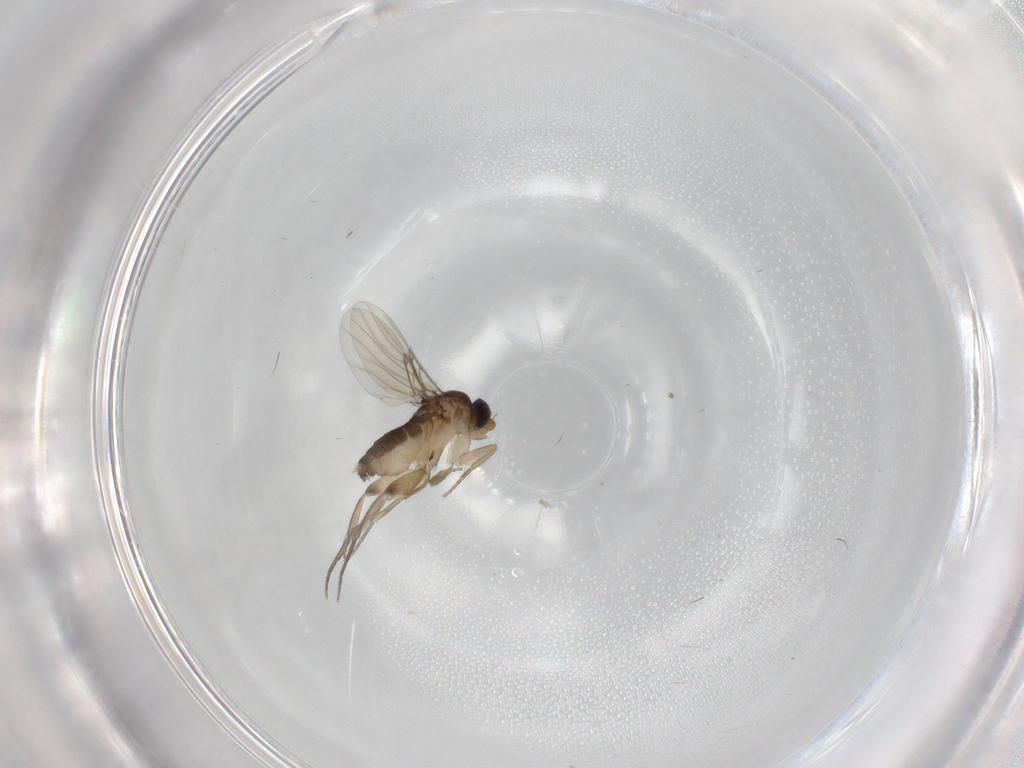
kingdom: Animalia
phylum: Arthropoda
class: Insecta
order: Diptera
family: Phoridae
